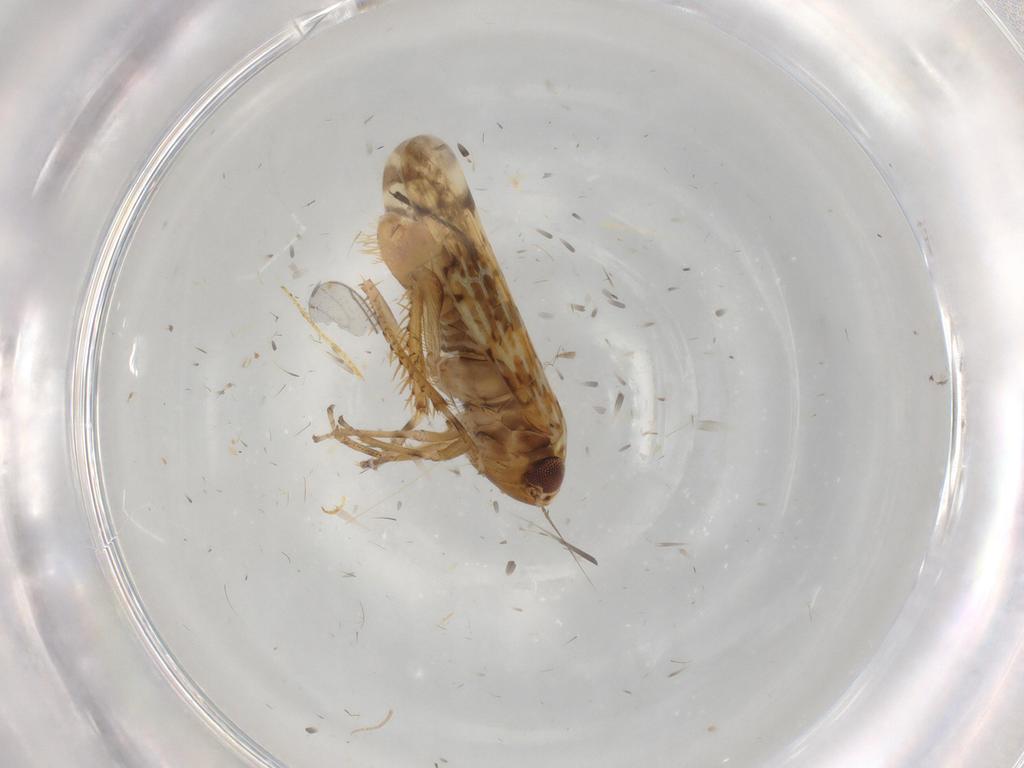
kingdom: Animalia
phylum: Arthropoda
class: Insecta
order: Hemiptera
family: Cicadellidae
